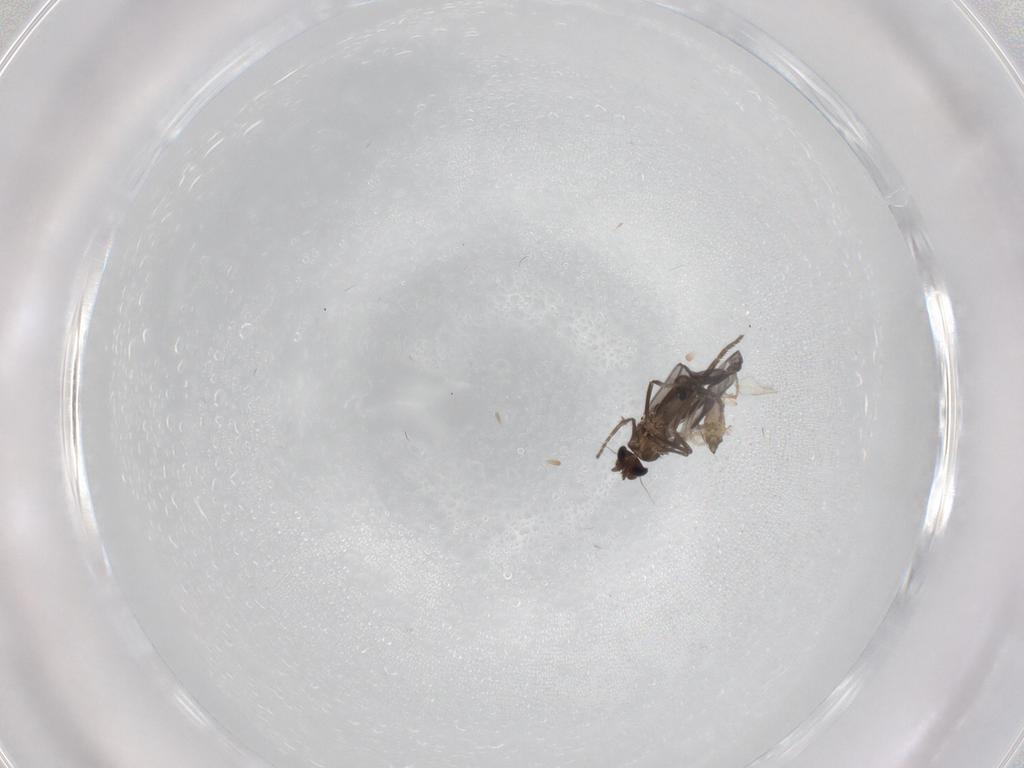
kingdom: Animalia
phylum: Arthropoda
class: Insecta
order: Diptera
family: Phoridae
